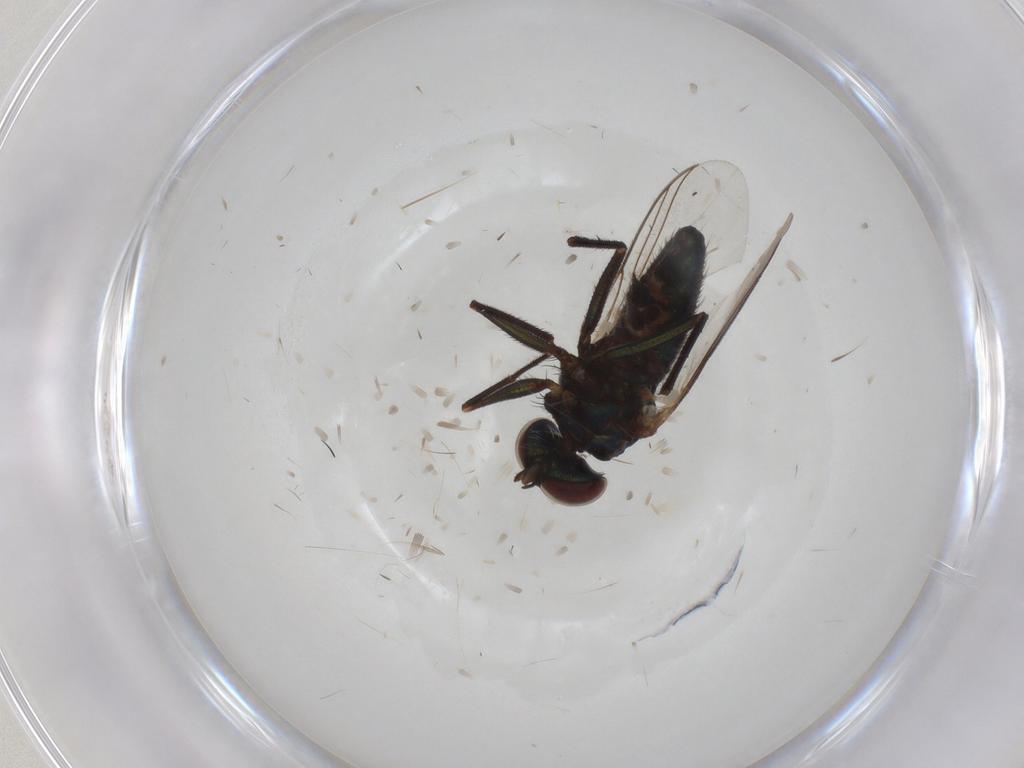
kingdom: Animalia
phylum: Arthropoda
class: Insecta
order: Diptera
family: Dolichopodidae
